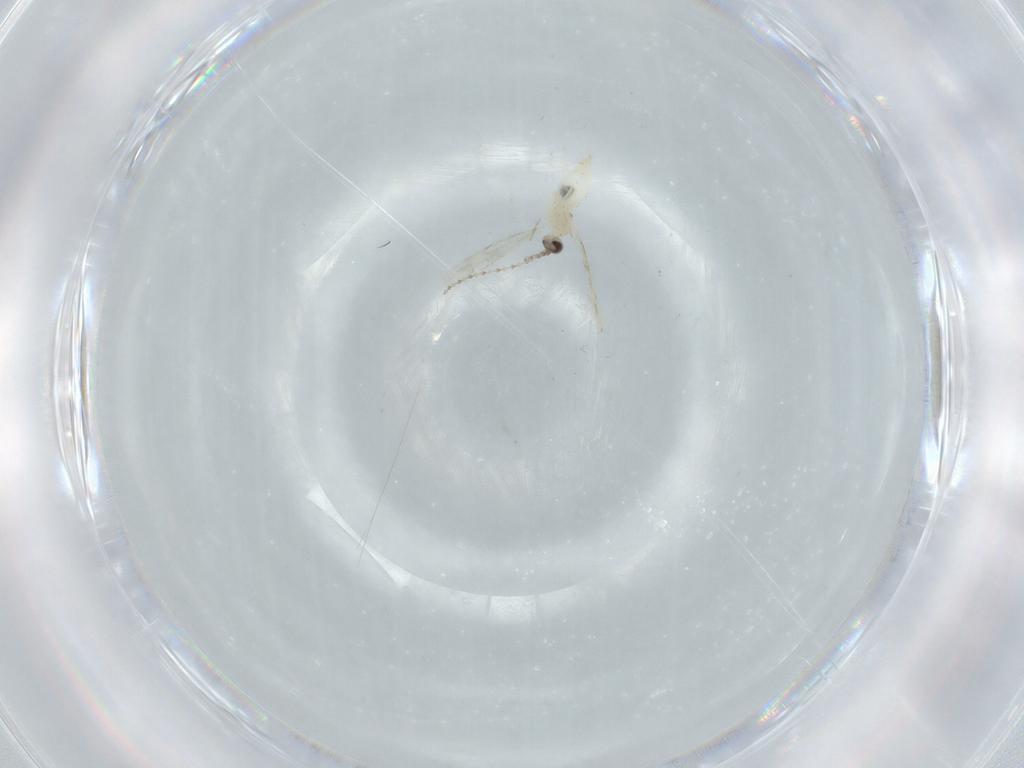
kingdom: Animalia
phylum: Arthropoda
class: Insecta
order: Diptera
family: Cecidomyiidae
